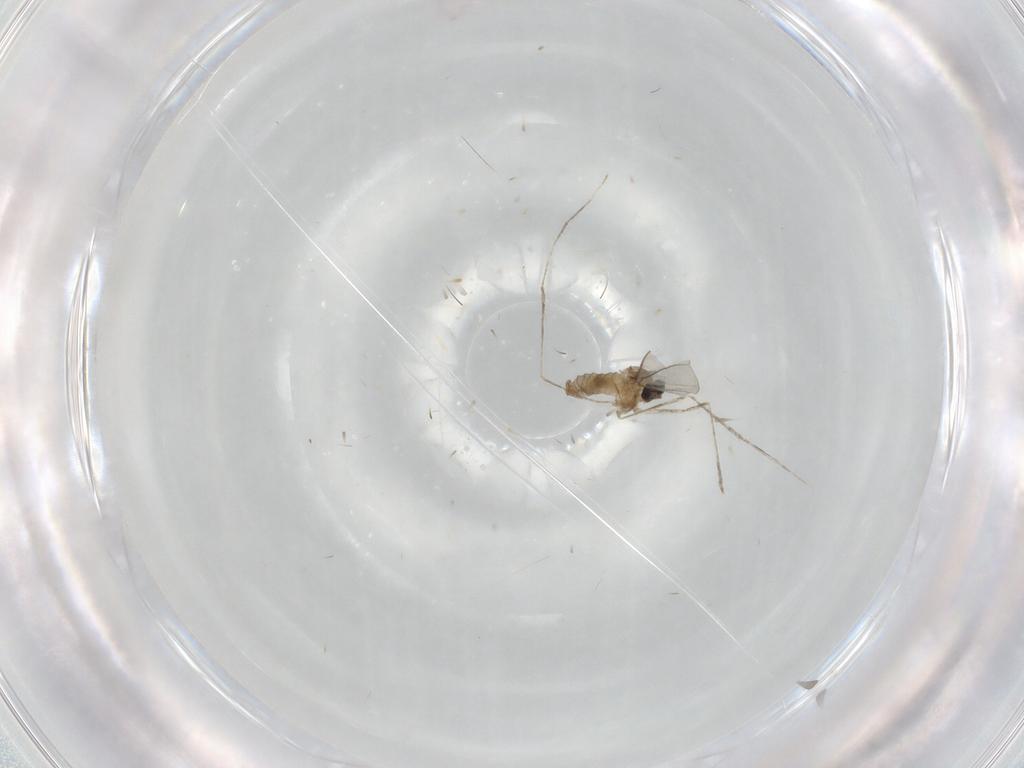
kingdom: Animalia
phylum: Arthropoda
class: Insecta
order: Diptera
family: Cecidomyiidae
